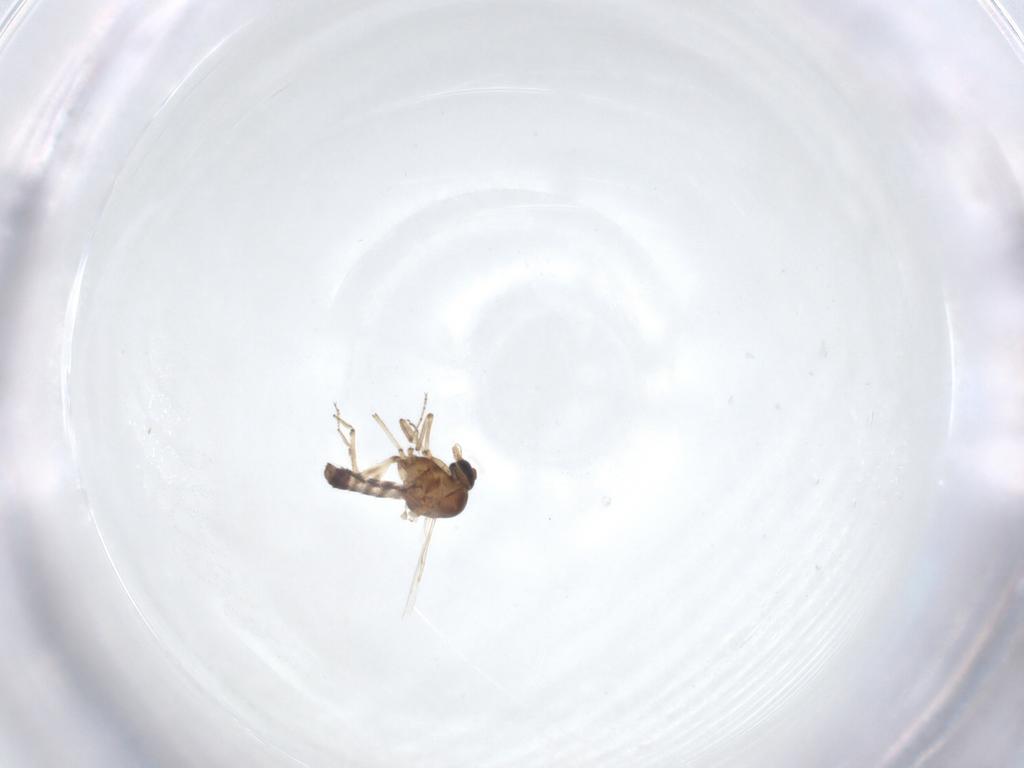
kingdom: Animalia
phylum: Arthropoda
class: Insecta
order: Diptera
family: Ceratopogonidae
